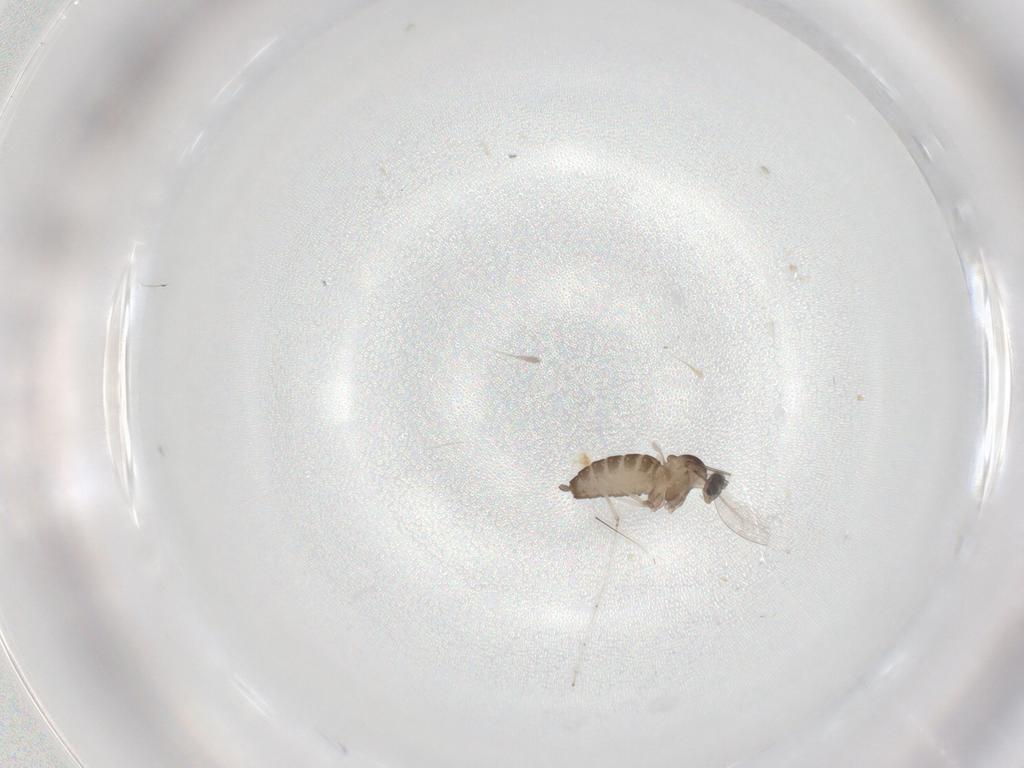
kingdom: Animalia
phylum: Arthropoda
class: Insecta
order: Diptera
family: Cecidomyiidae
